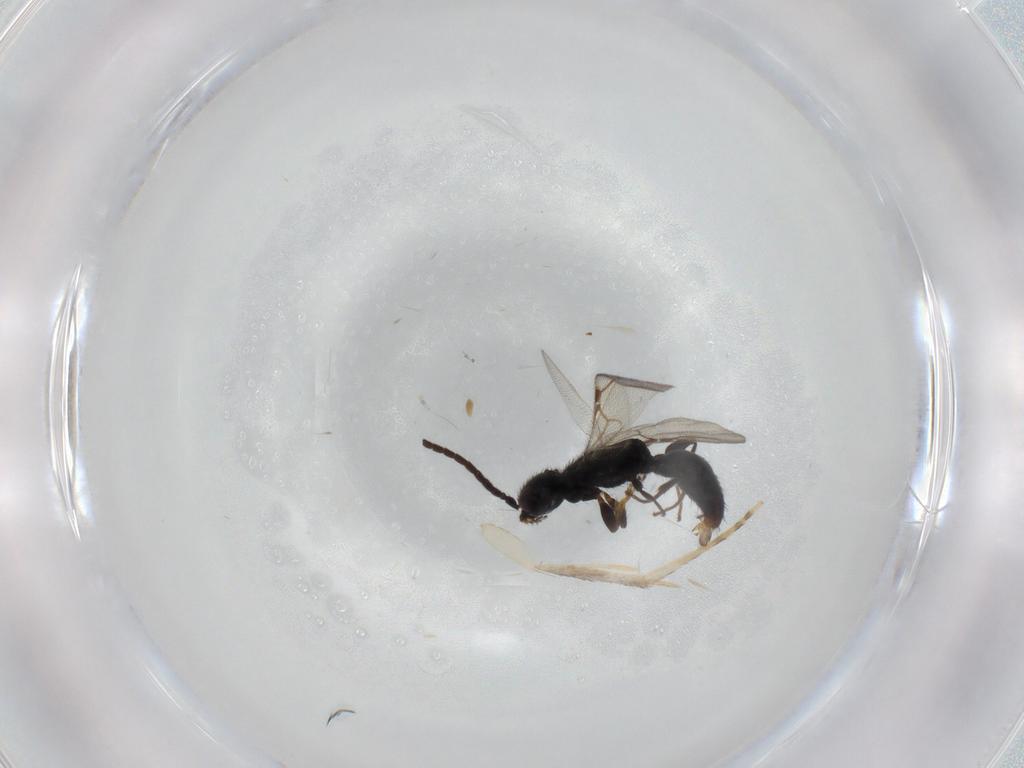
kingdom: Animalia
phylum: Arthropoda
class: Insecta
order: Hymenoptera
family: Bethylidae
